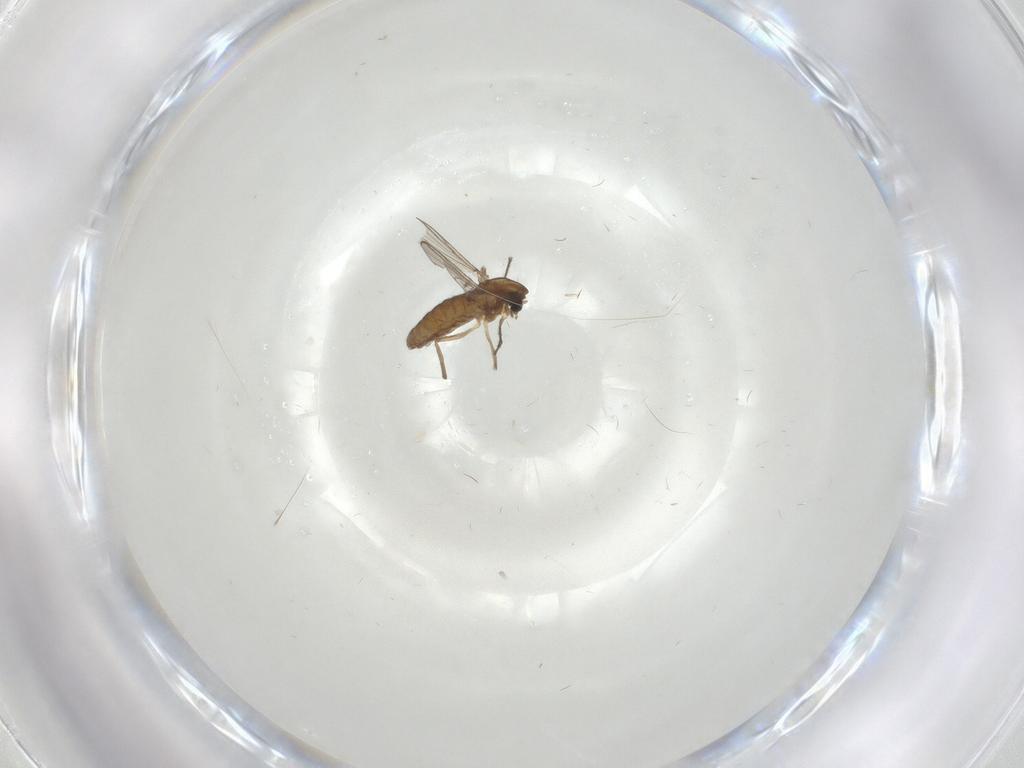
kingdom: Animalia
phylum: Arthropoda
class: Insecta
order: Diptera
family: Chironomidae
